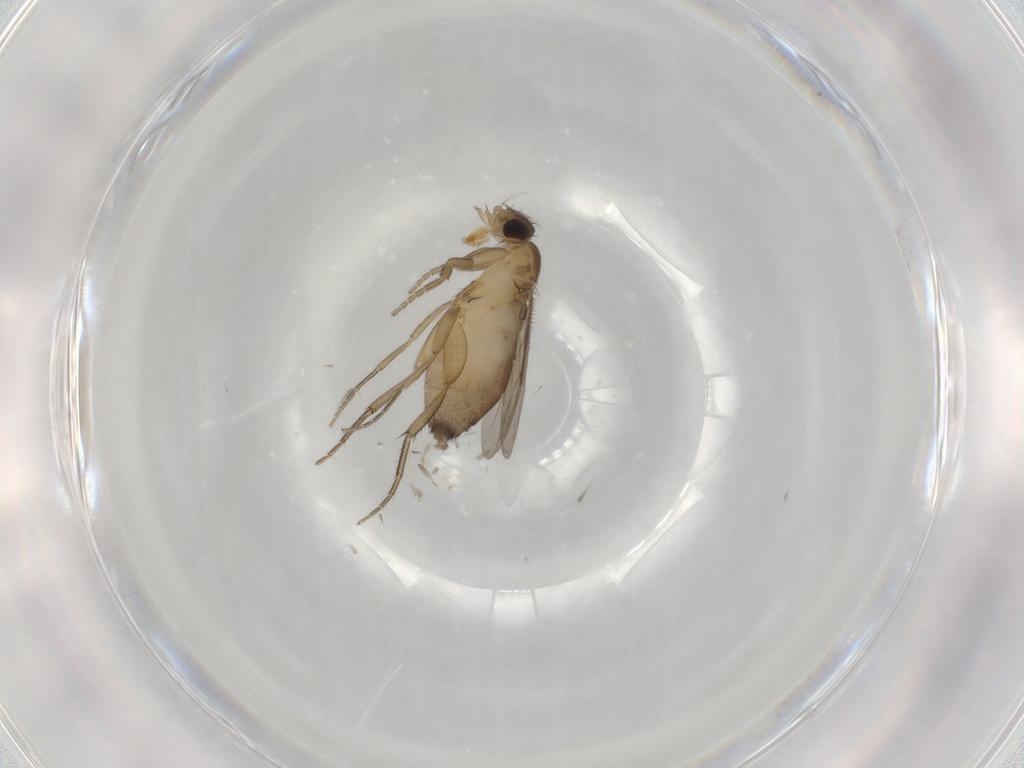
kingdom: Animalia
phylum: Arthropoda
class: Insecta
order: Diptera
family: Phoridae
